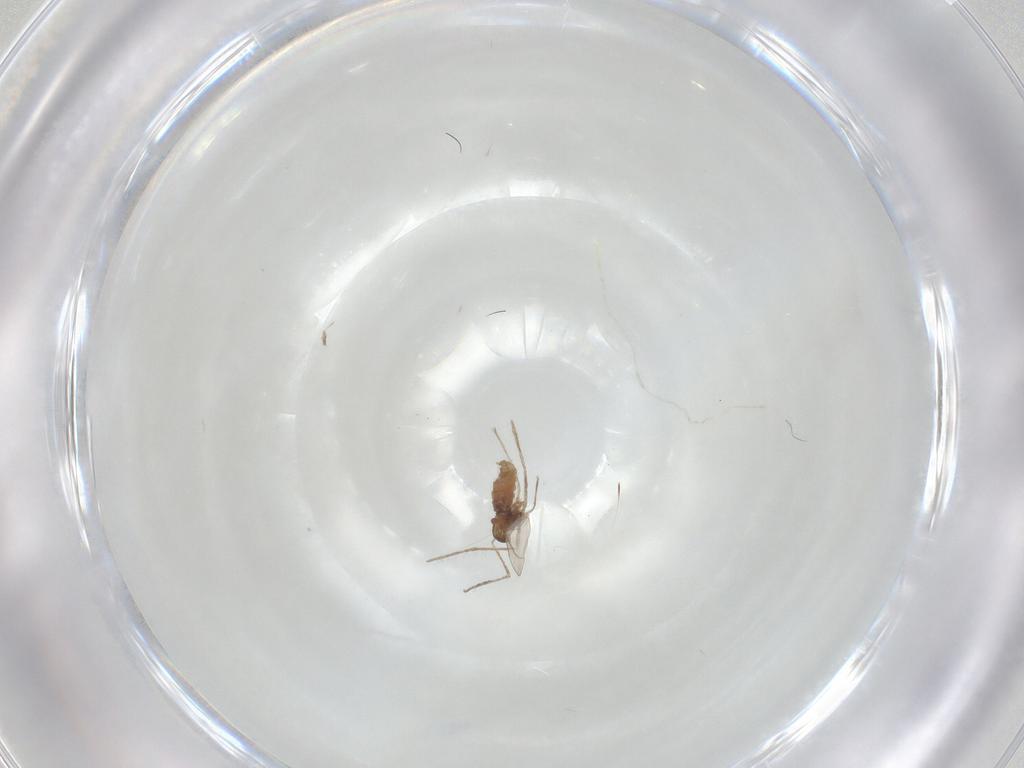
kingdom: Animalia
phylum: Arthropoda
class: Insecta
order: Diptera
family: Cecidomyiidae
